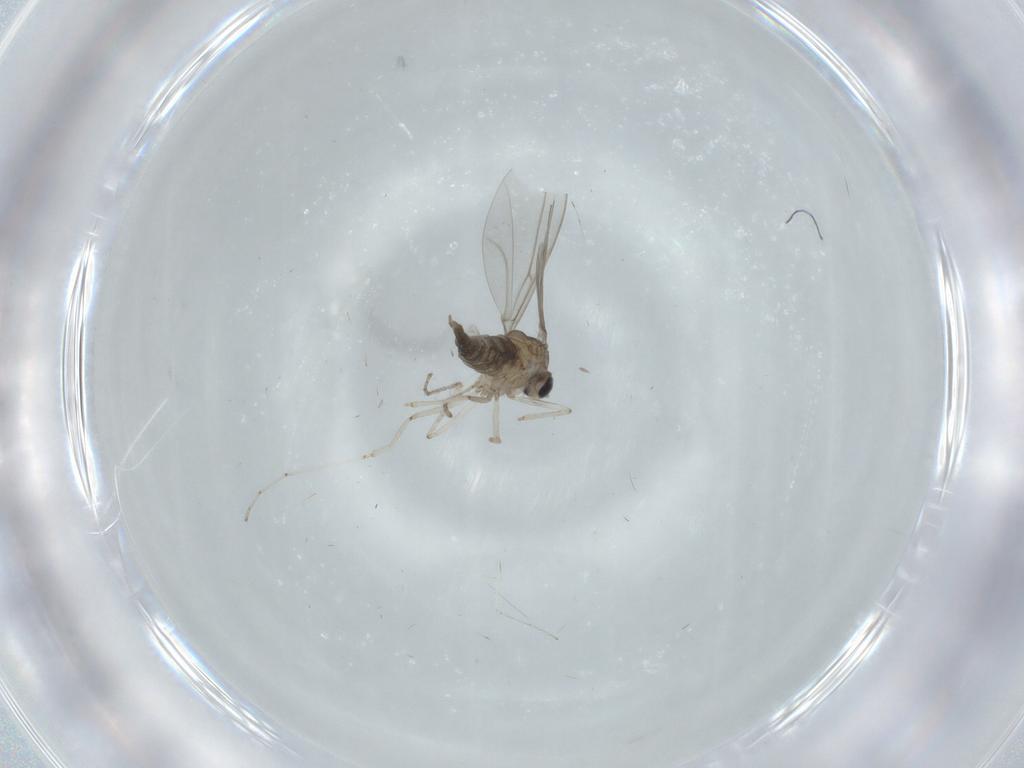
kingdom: Animalia
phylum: Arthropoda
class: Insecta
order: Diptera
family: Cecidomyiidae
